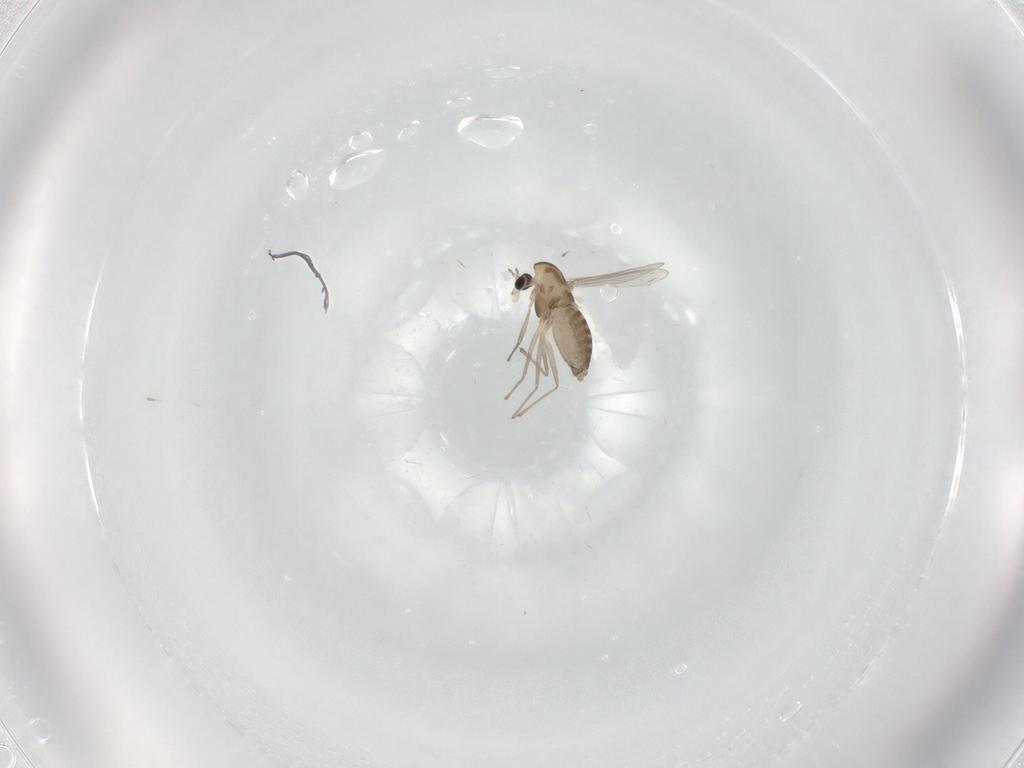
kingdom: Animalia
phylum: Arthropoda
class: Insecta
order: Diptera
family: Chironomidae
